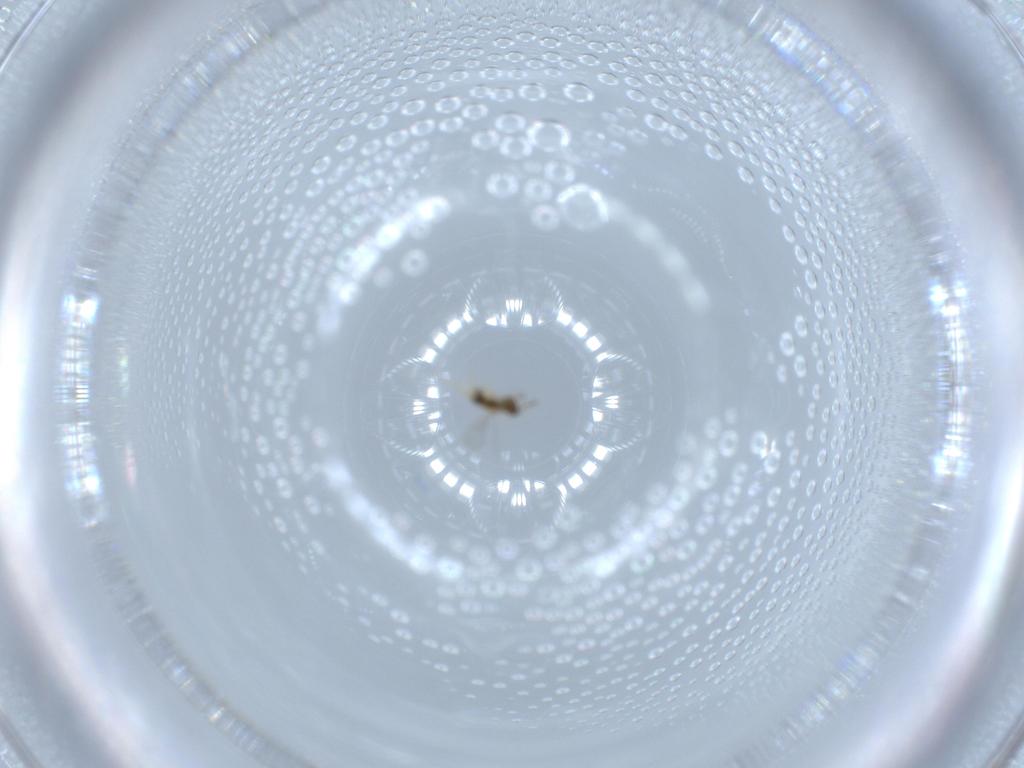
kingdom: Animalia
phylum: Arthropoda
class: Insecta
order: Hymenoptera
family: Aphelinidae
